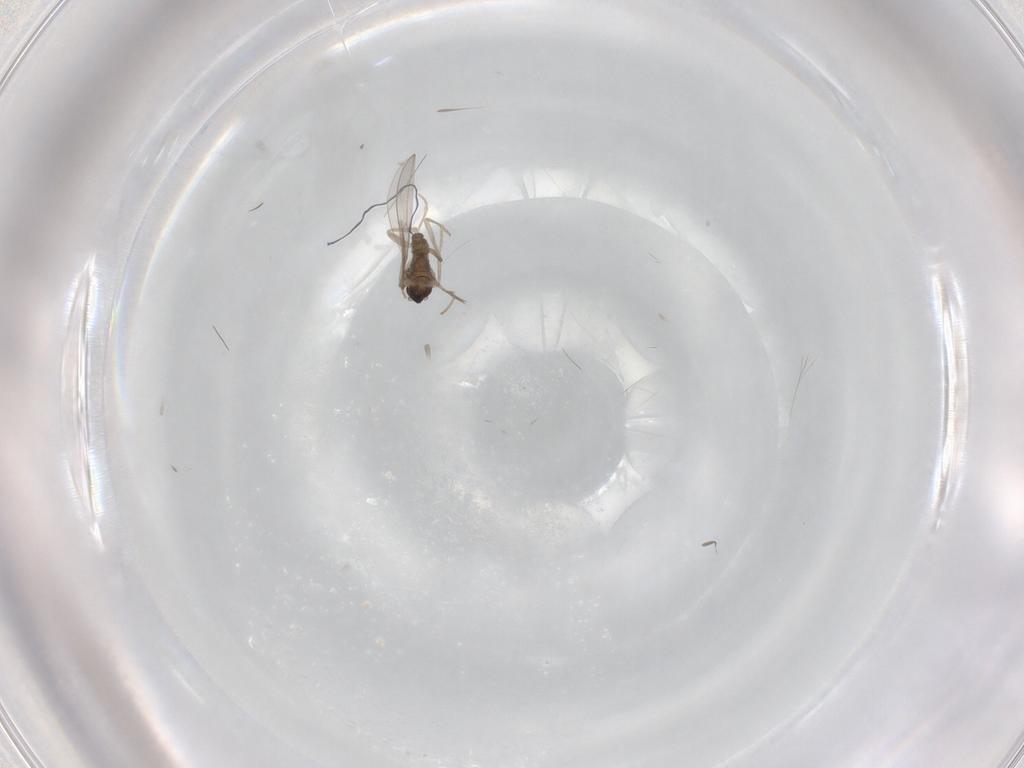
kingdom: Animalia
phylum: Arthropoda
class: Insecta
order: Diptera
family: Cecidomyiidae
